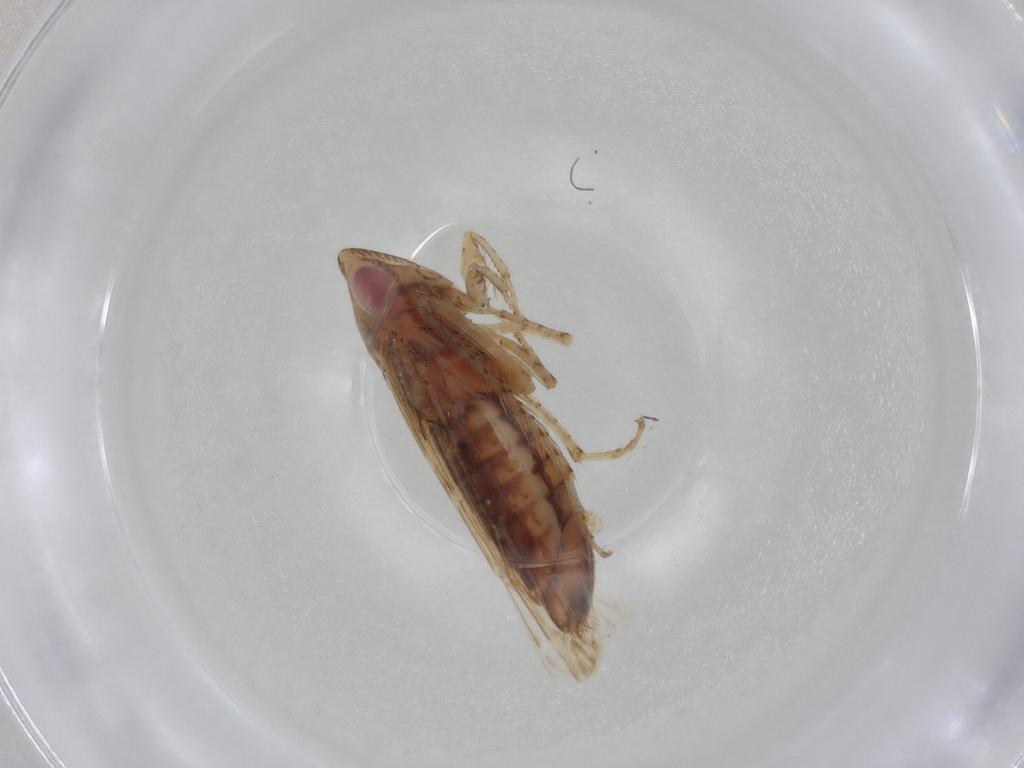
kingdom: Animalia
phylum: Arthropoda
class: Insecta
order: Hemiptera
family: Cicadellidae
